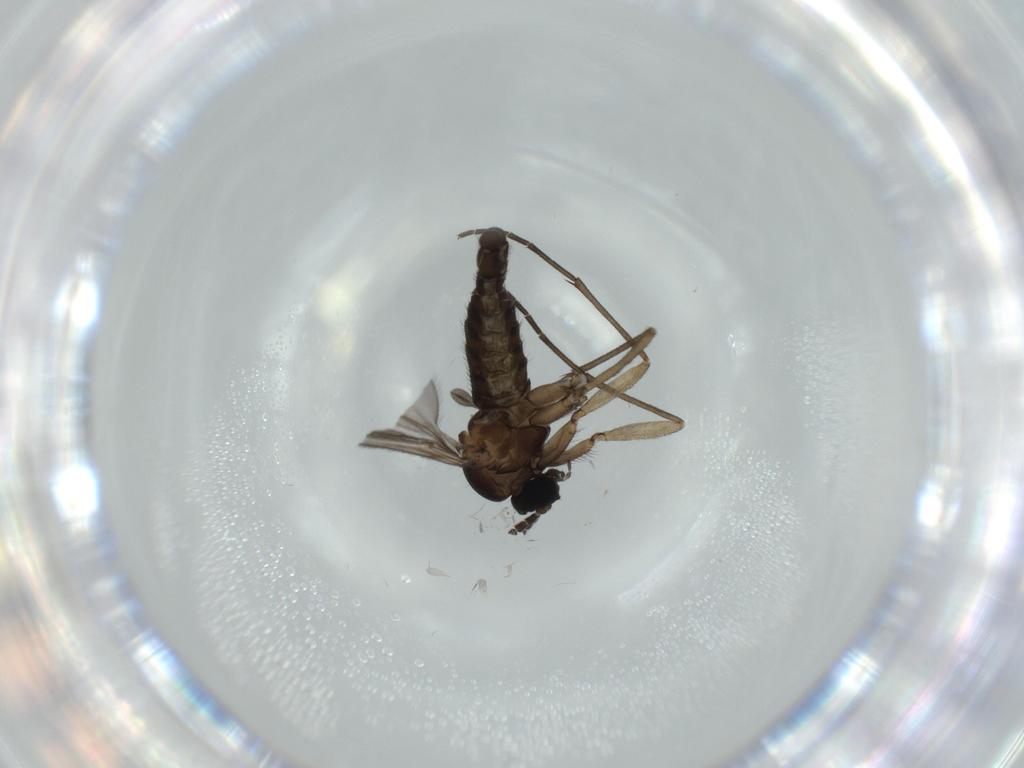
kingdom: Animalia
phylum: Arthropoda
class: Insecta
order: Diptera
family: Sciaridae
